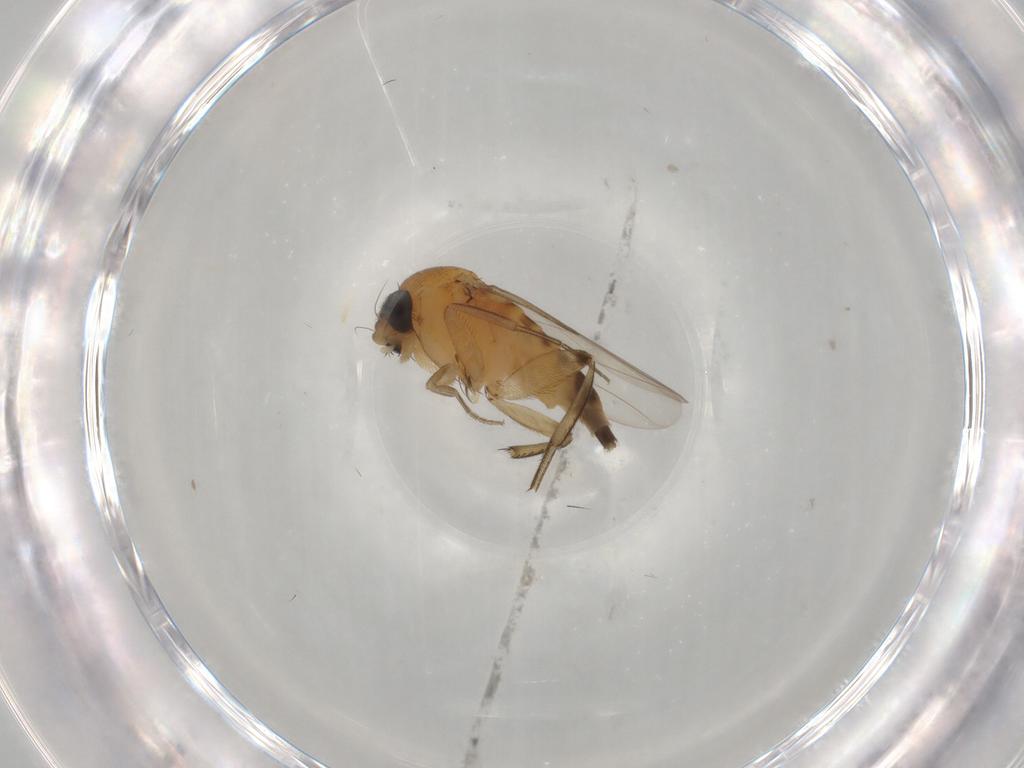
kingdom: Animalia
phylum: Arthropoda
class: Insecta
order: Diptera
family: Phoridae
